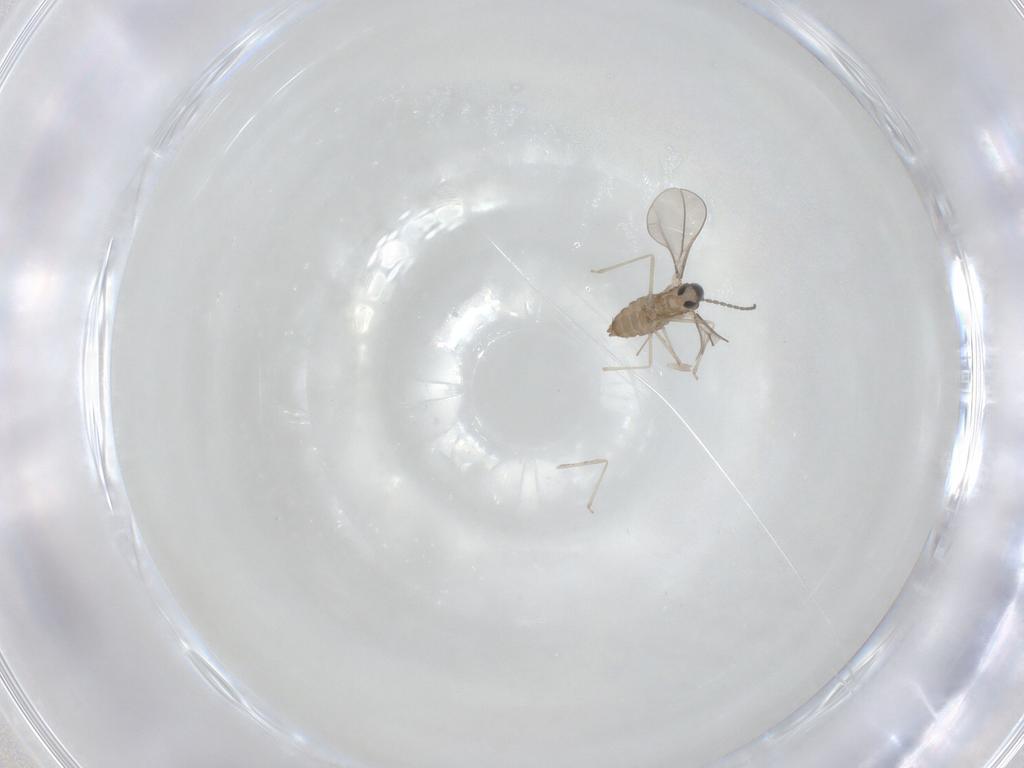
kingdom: Animalia
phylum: Arthropoda
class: Insecta
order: Diptera
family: Cecidomyiidae
